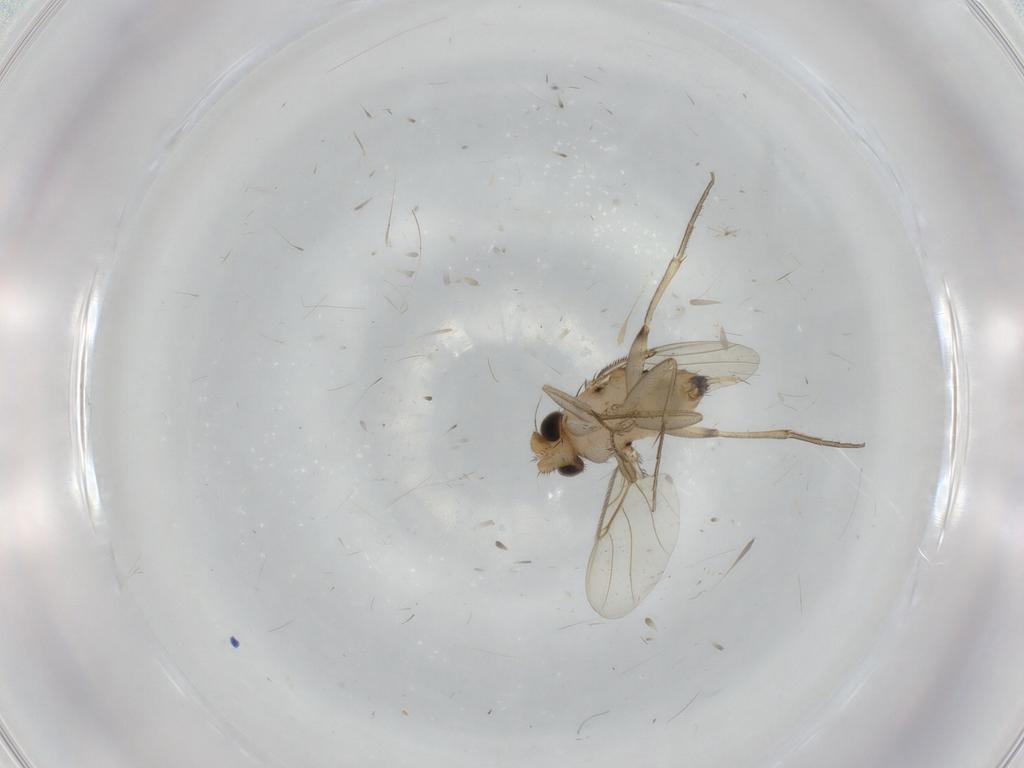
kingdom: Animalia
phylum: Arthropoda
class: Insecta
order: Diptera
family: Phoridae
